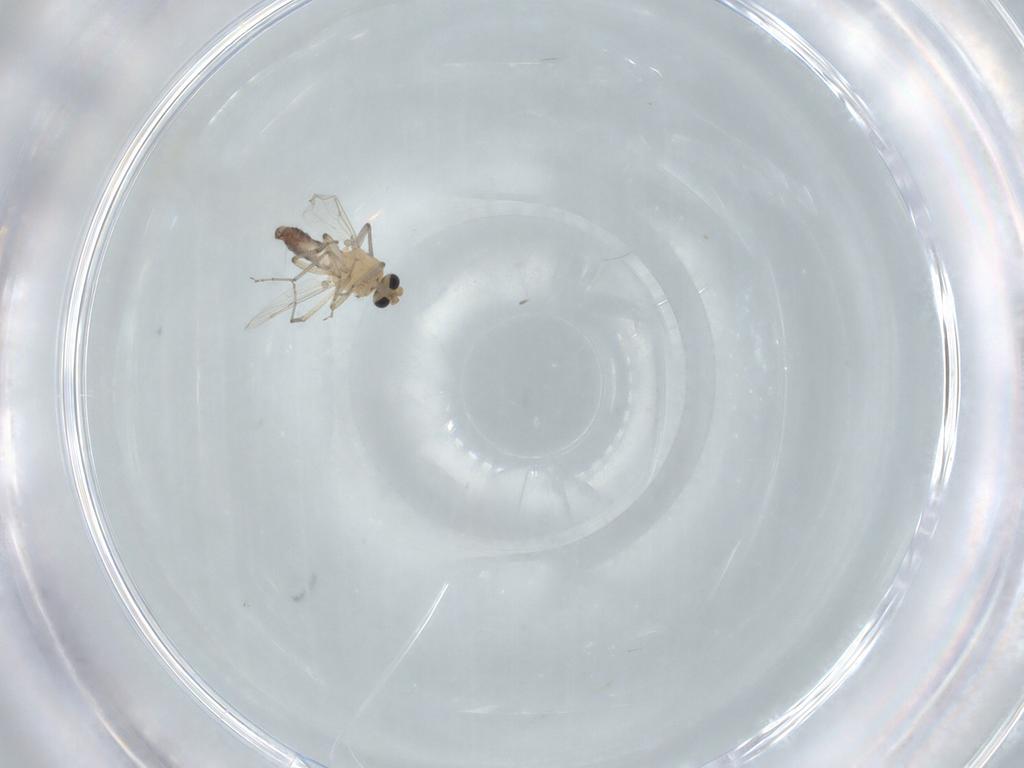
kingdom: Animalia
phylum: Arthropoda
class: Insecta
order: Diptera
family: Ceratopogonidae
